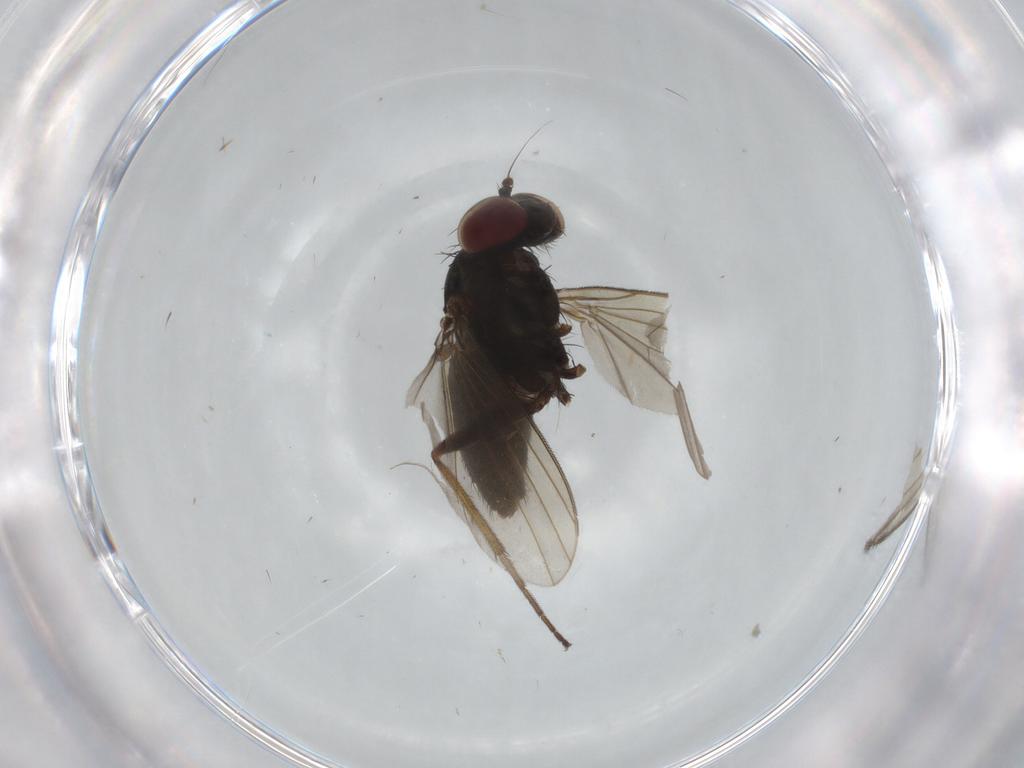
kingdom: Animalia
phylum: Arthropoda
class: Insecta
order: Diptera
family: Dolichopodidae
